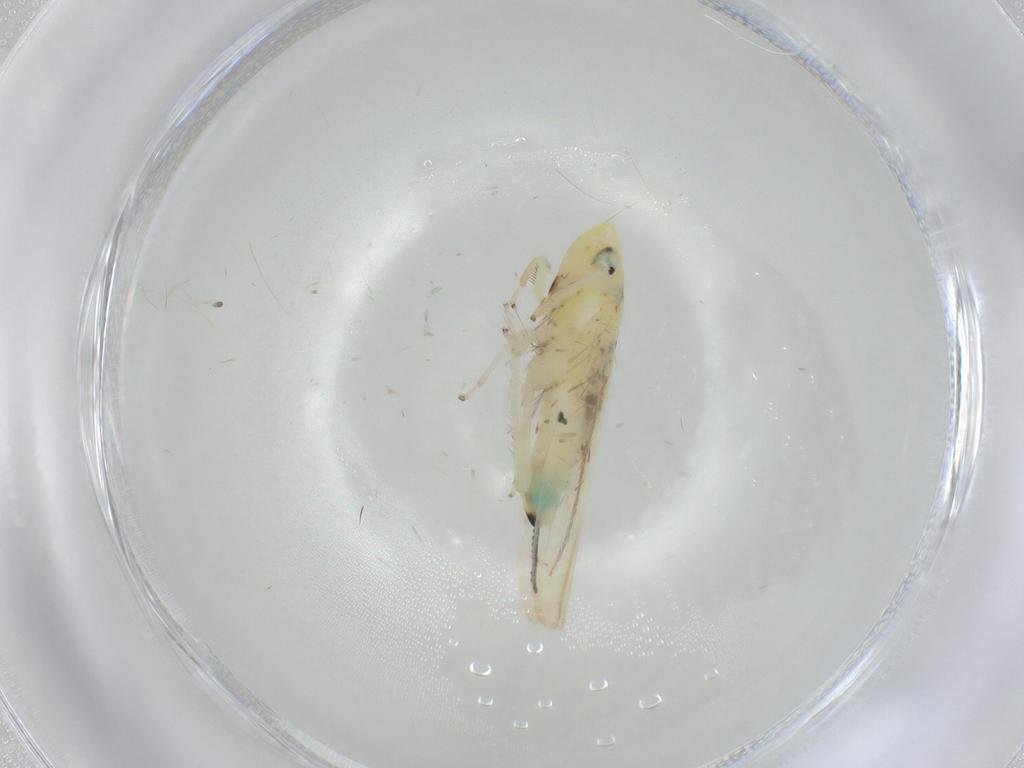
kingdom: Animalia
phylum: Arthropoda
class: Insecta
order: Hemiptera
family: Cicadellidae
